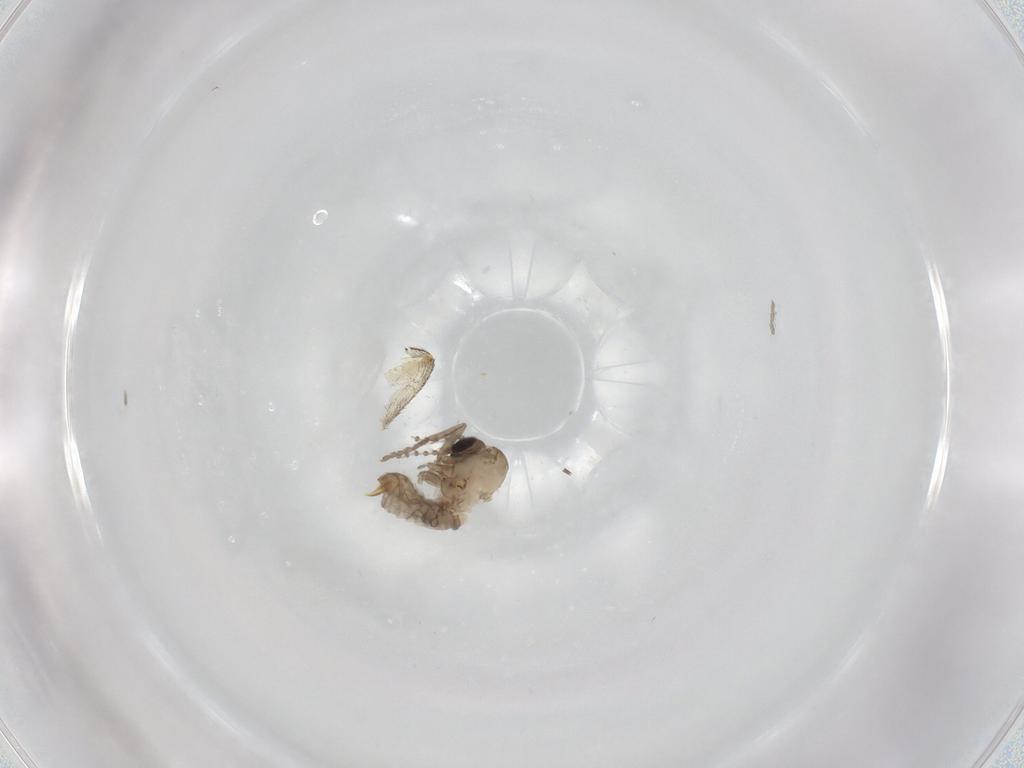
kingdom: Animalia
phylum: Arthropoda
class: Insecta
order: Diptera
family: Psychodidae
